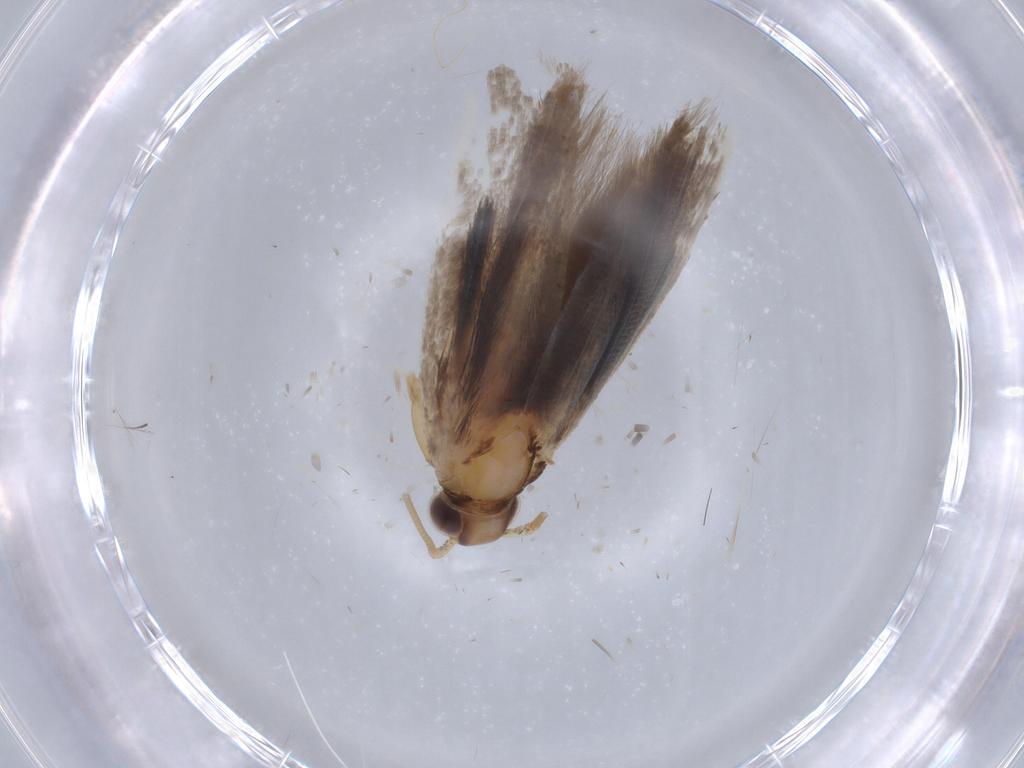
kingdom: Animalia
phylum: Arthropoda
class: Insecta
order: Lepidoptera
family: Gelechiidae
